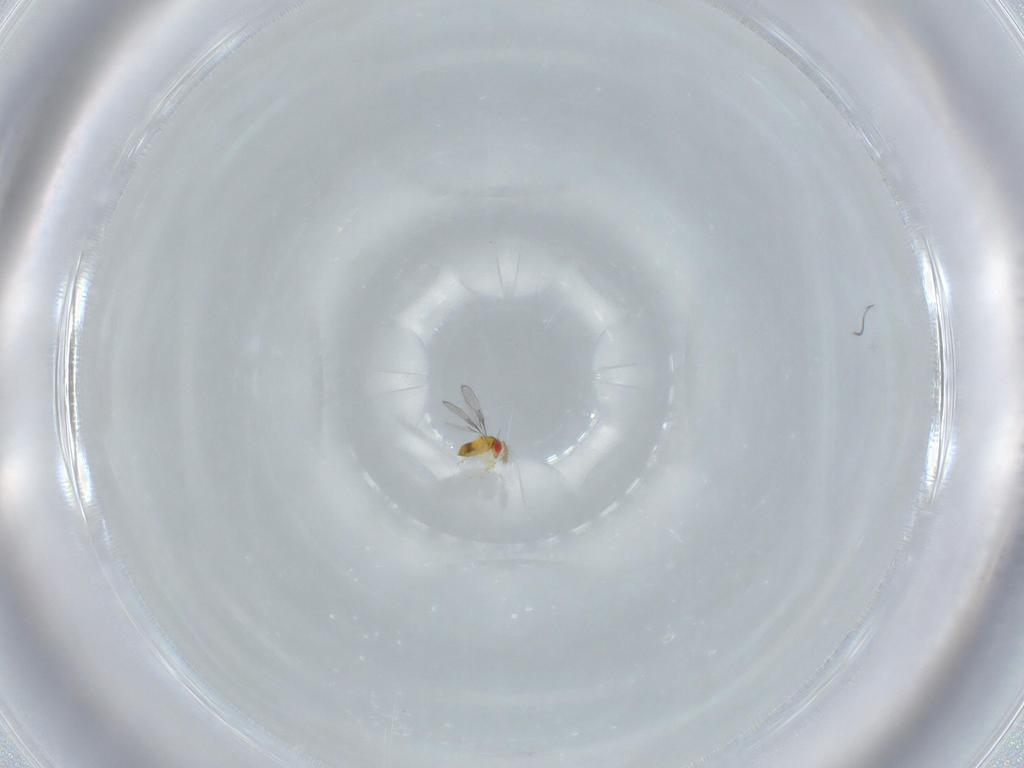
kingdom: Animalia
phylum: Arthropoda
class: Insecta
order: Hymenoptera
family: Trichogrammatidae
